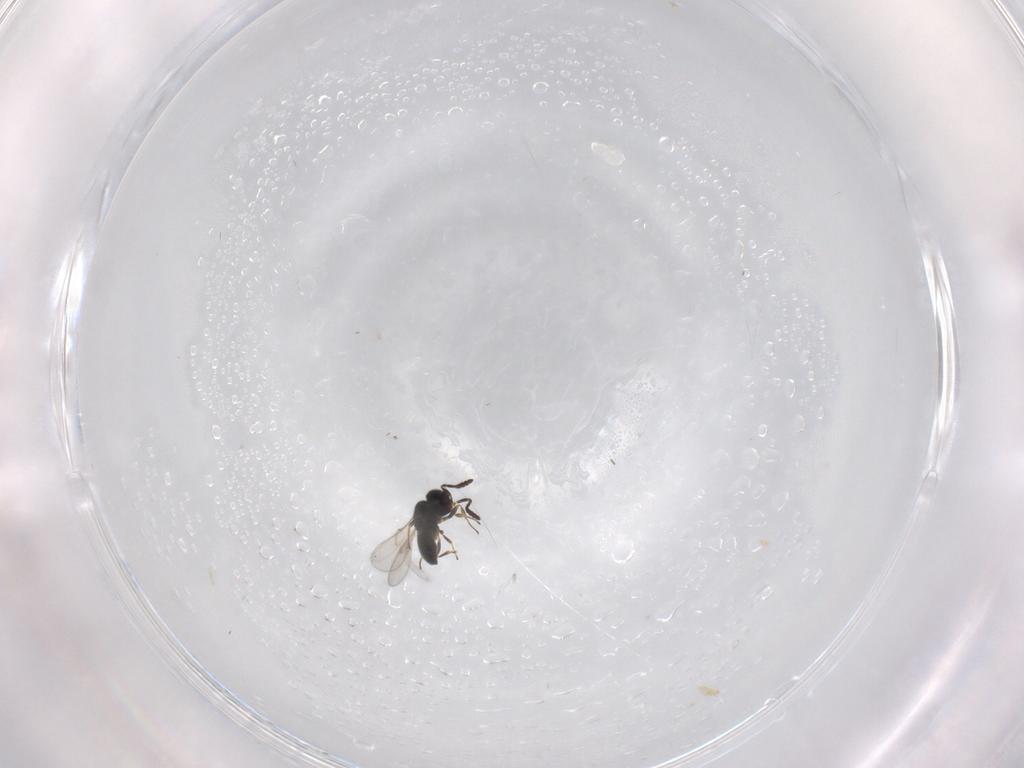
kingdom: Animalia
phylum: Arthropoda
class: Insecta
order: Hymenoptera
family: Scelionidae
